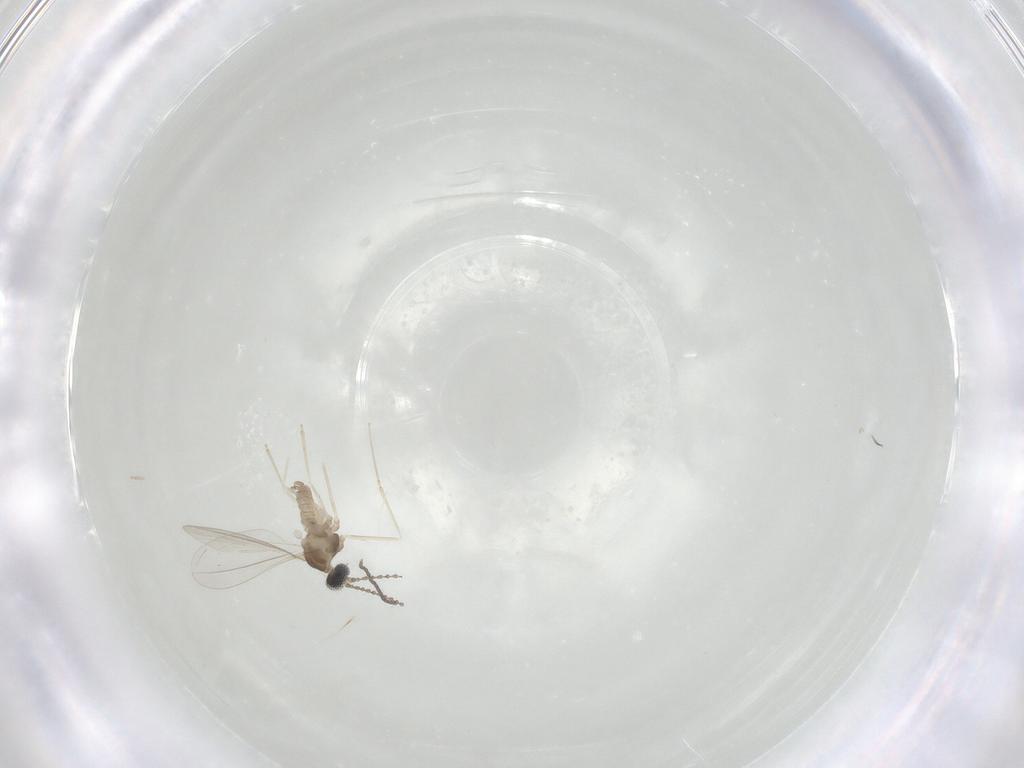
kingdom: Animalia
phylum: Arthropoda
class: Insecta
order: Diptera
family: Cecidomyiidae
